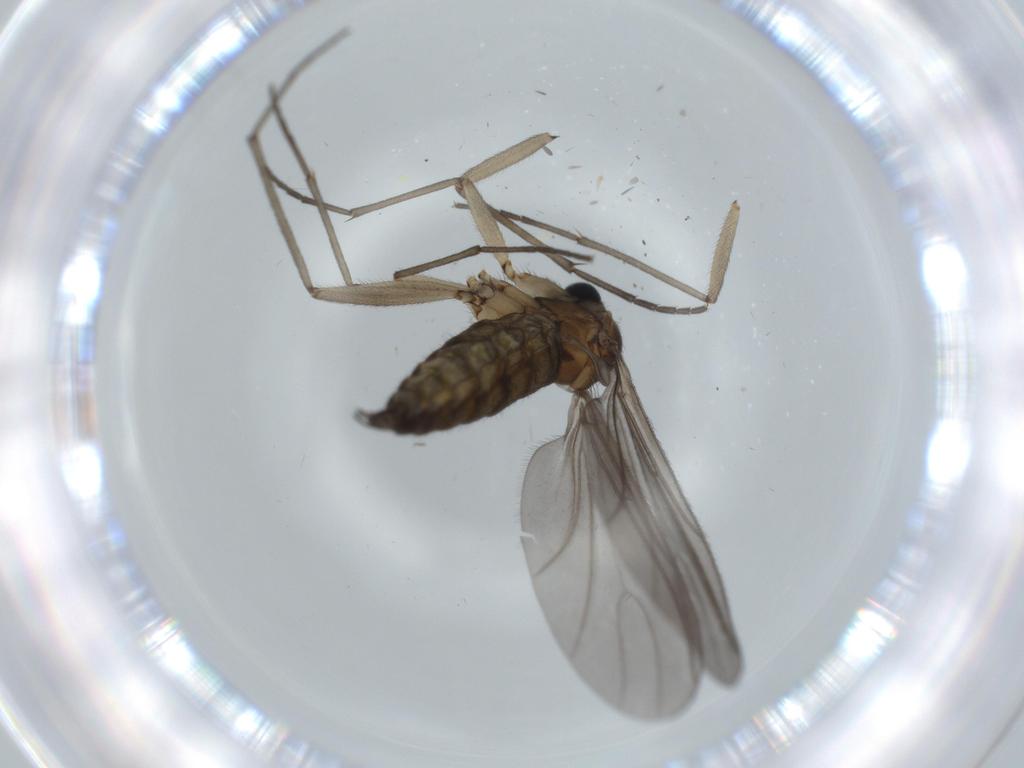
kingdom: Animalia
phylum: Arthropoda
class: Insecta
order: Diptera
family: Sciaridae
